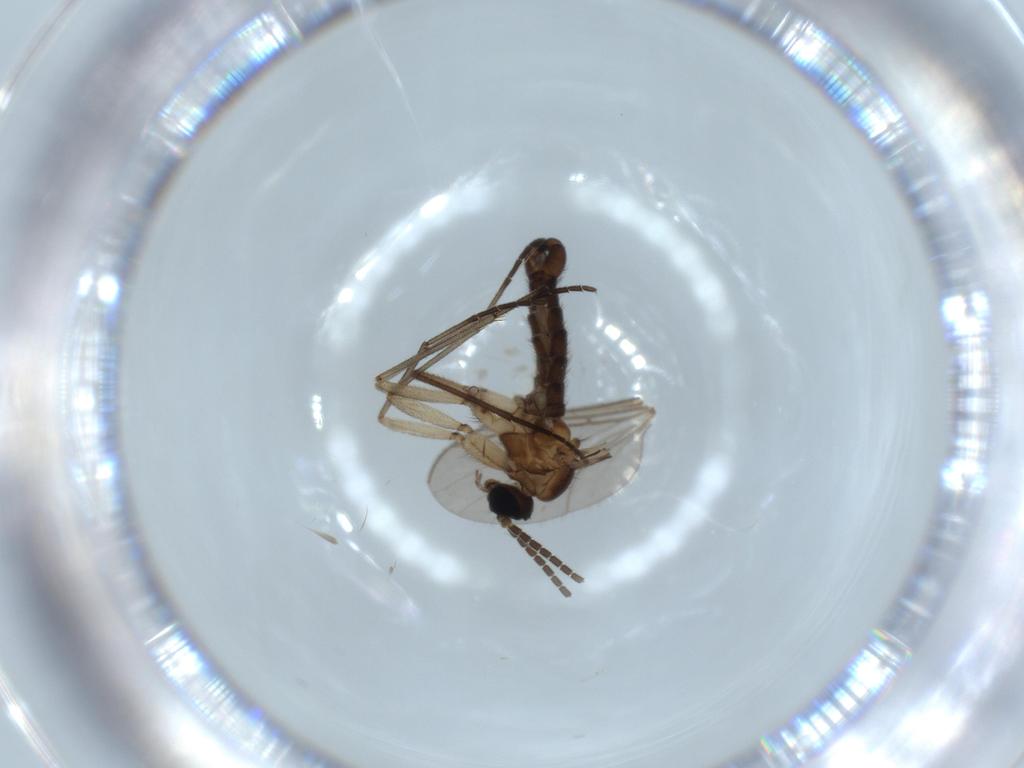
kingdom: Animalia
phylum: Arthropoda
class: Insecta
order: Diptera
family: Sciaridae
